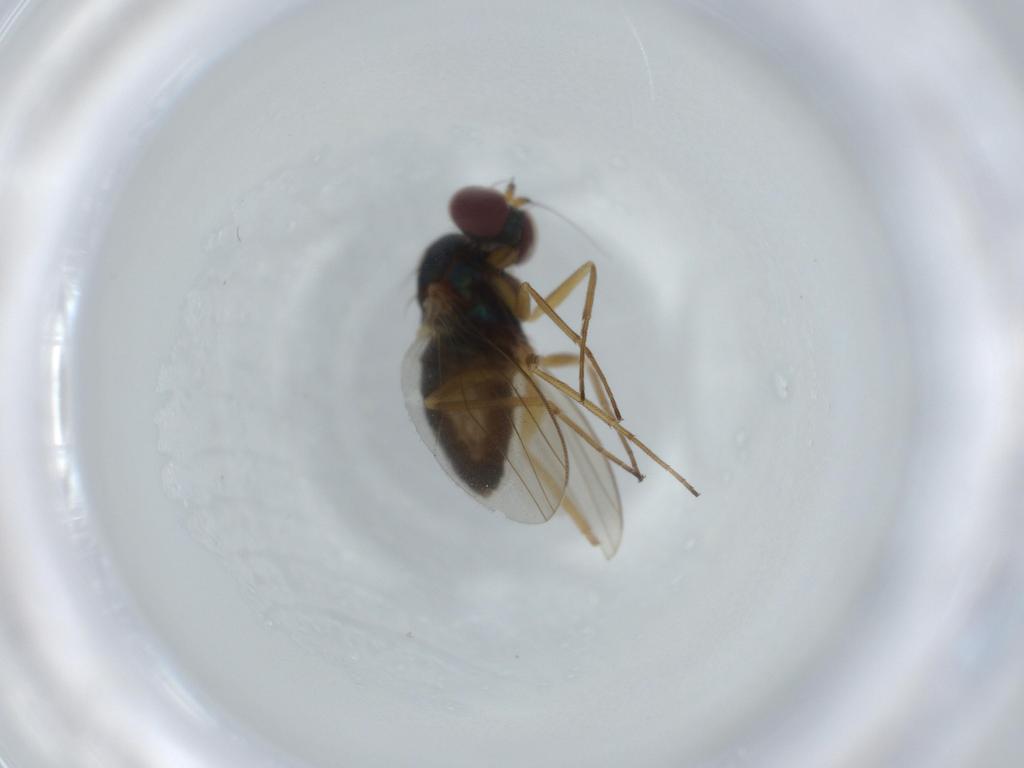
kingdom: Animalia
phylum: Arthropoda
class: Insecta
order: Diptera
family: Dolichopodidae
